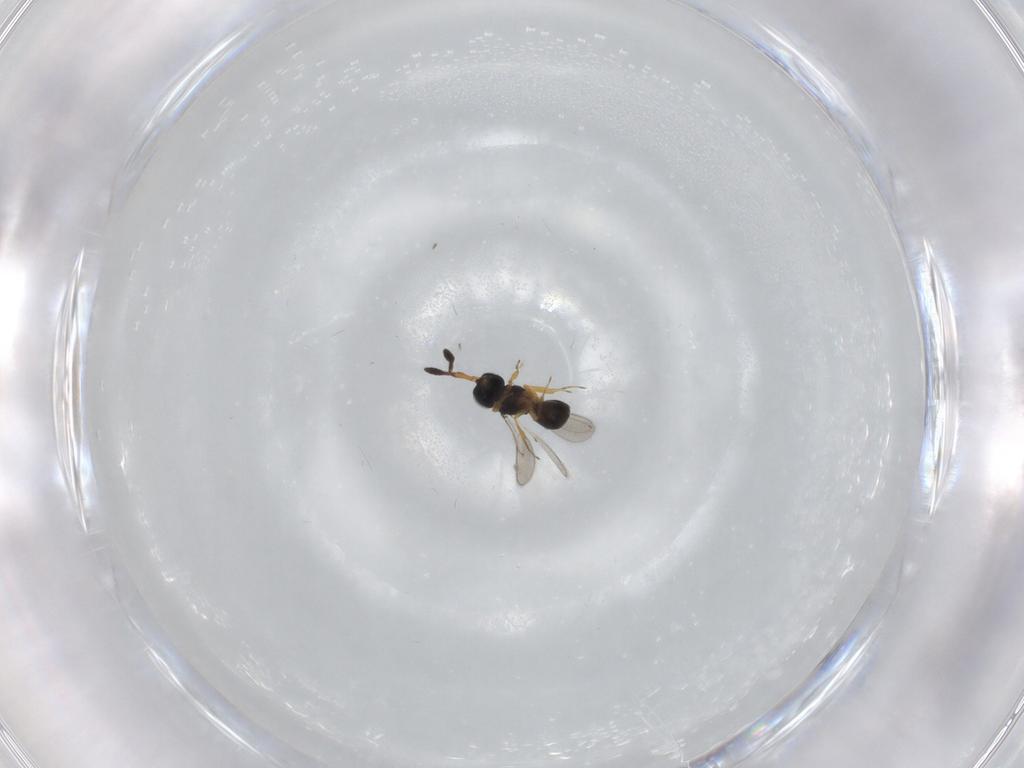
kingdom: Animalia
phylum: Arthropoda
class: Insecta
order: Hymenoptera
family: Scelionidae
